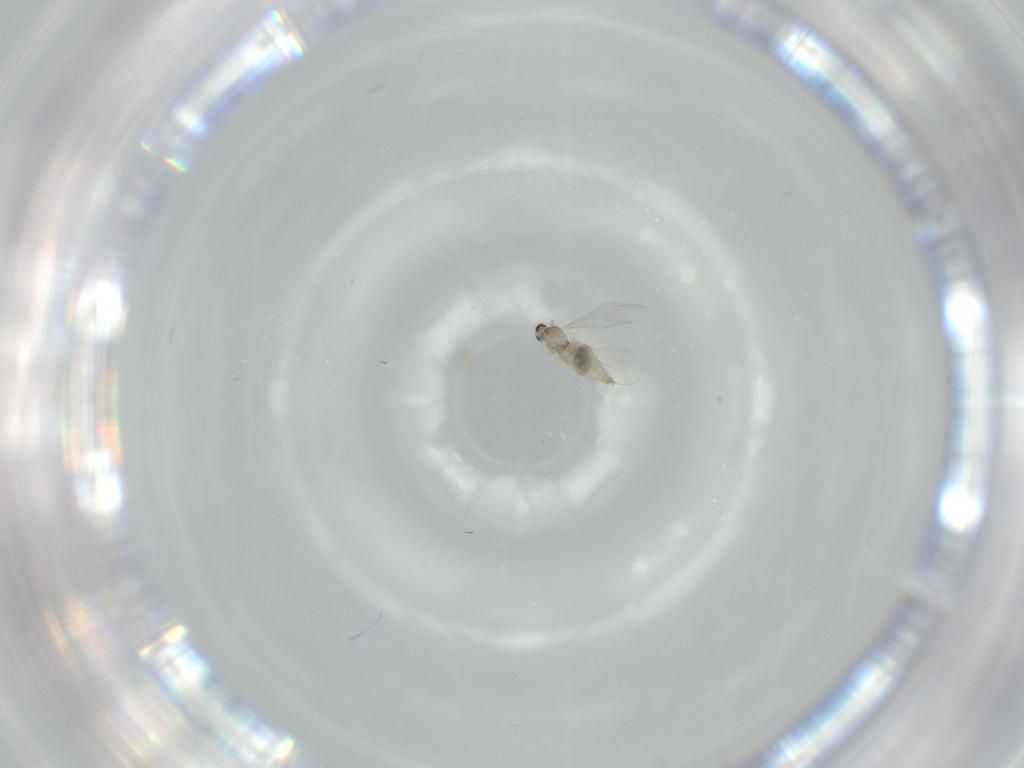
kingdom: Animalia
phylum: Arthropoda
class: Insecta
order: Diptera
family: Cecidomyiidae
